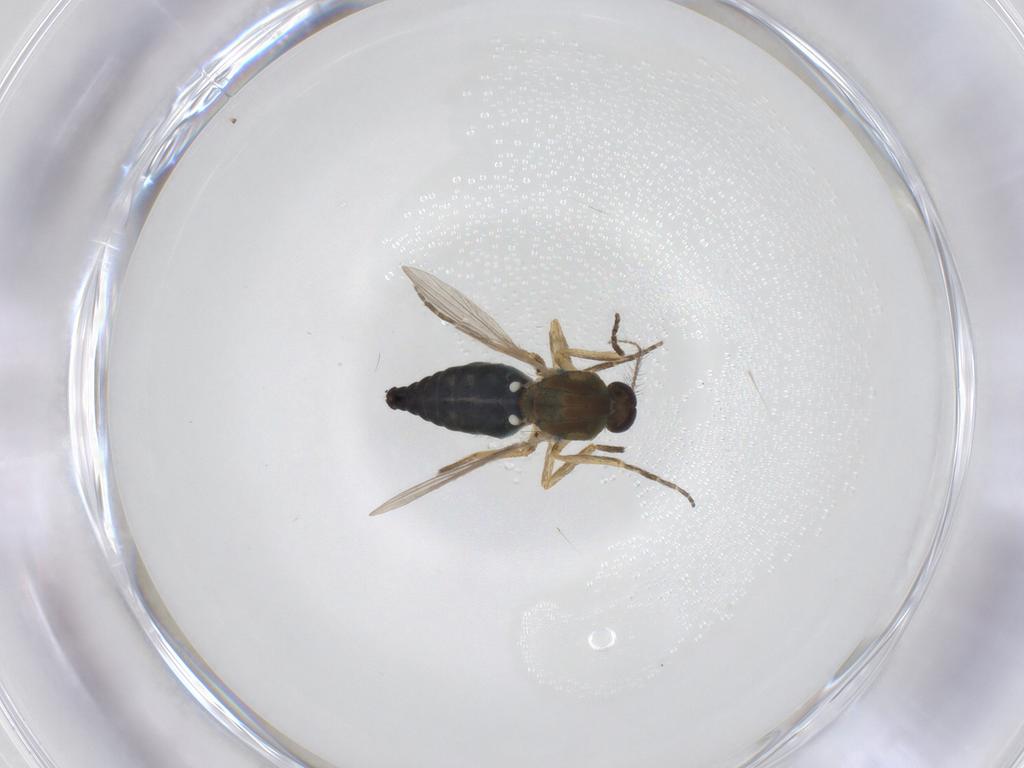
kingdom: Animalia
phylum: Arthropoda
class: Insecta
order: Diptera
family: Ceratopogonidae
